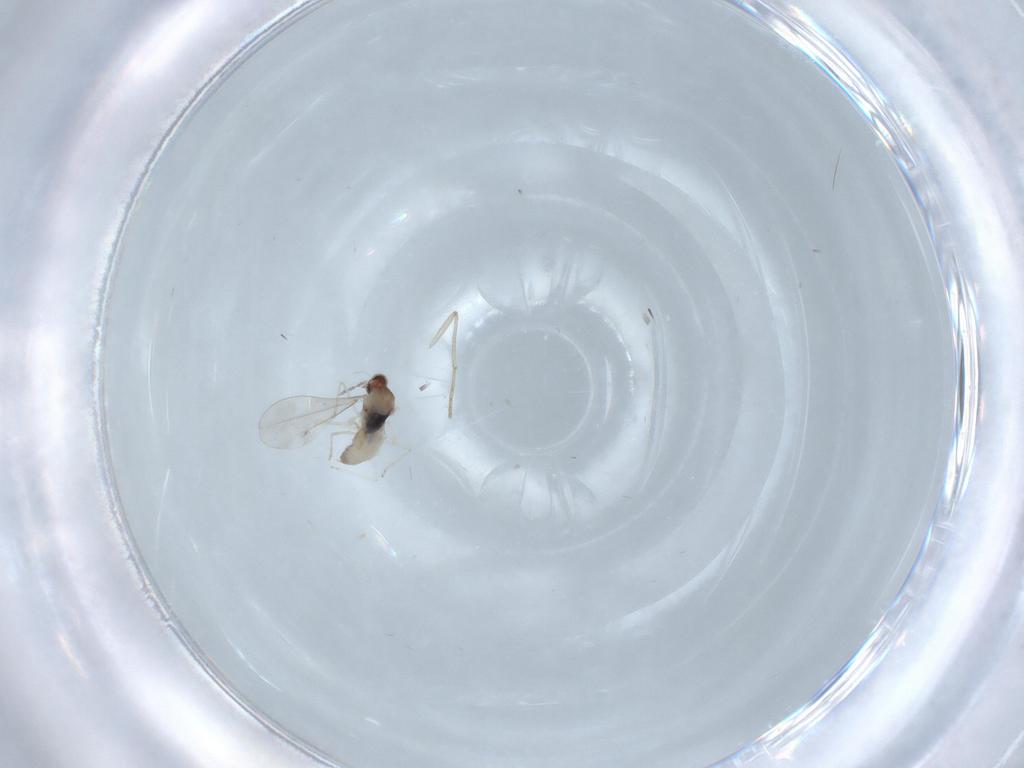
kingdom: Animalia
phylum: Arthropoda
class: Insecta
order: Diptera
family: Cecidomyiidae
